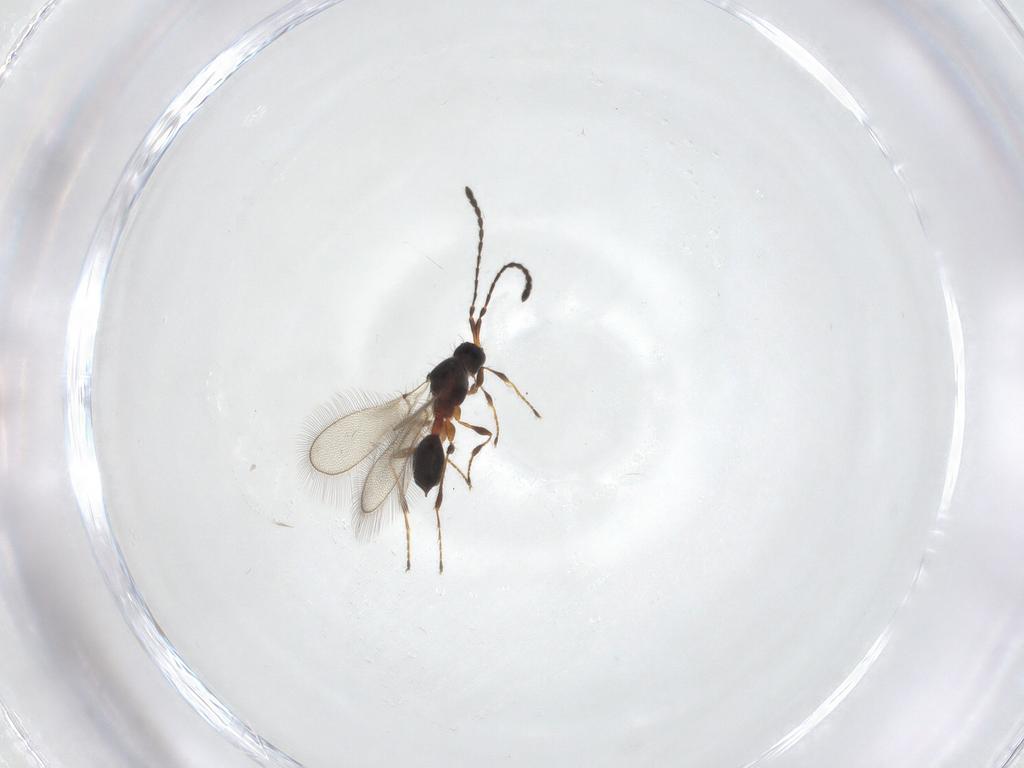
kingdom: Animalia
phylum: Arthropoda
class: Insecta
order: Hymenoptera
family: Diapriidae
